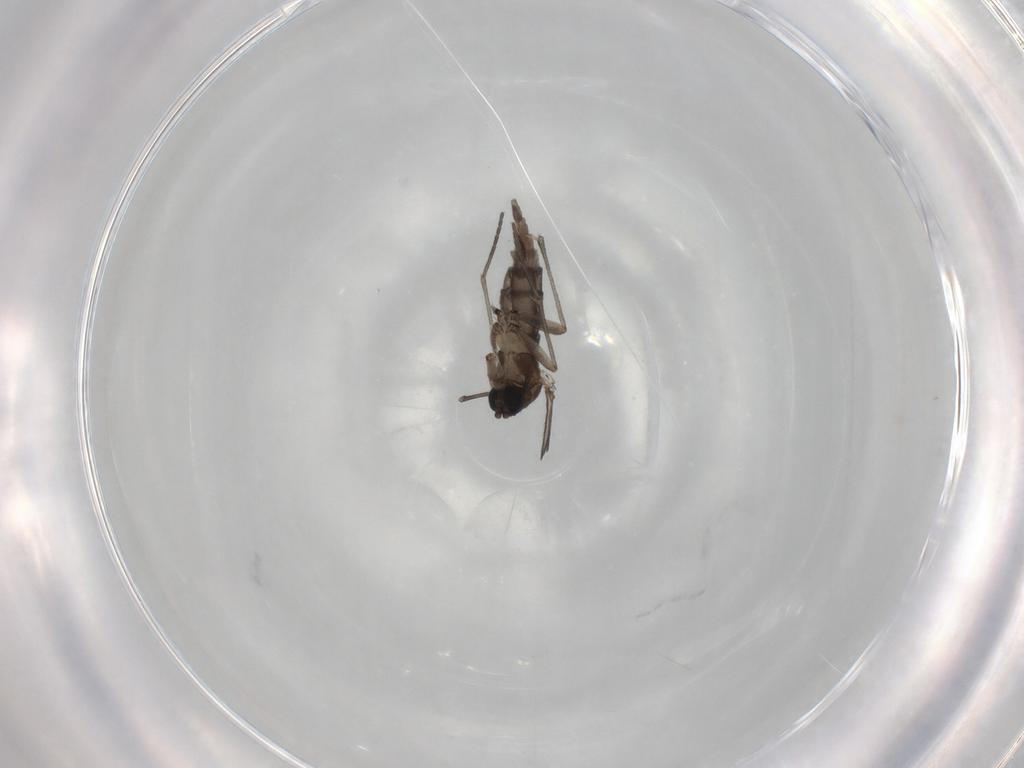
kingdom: Animalia
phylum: Arthropoda
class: Insecta
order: Diptera
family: Sciaridae
